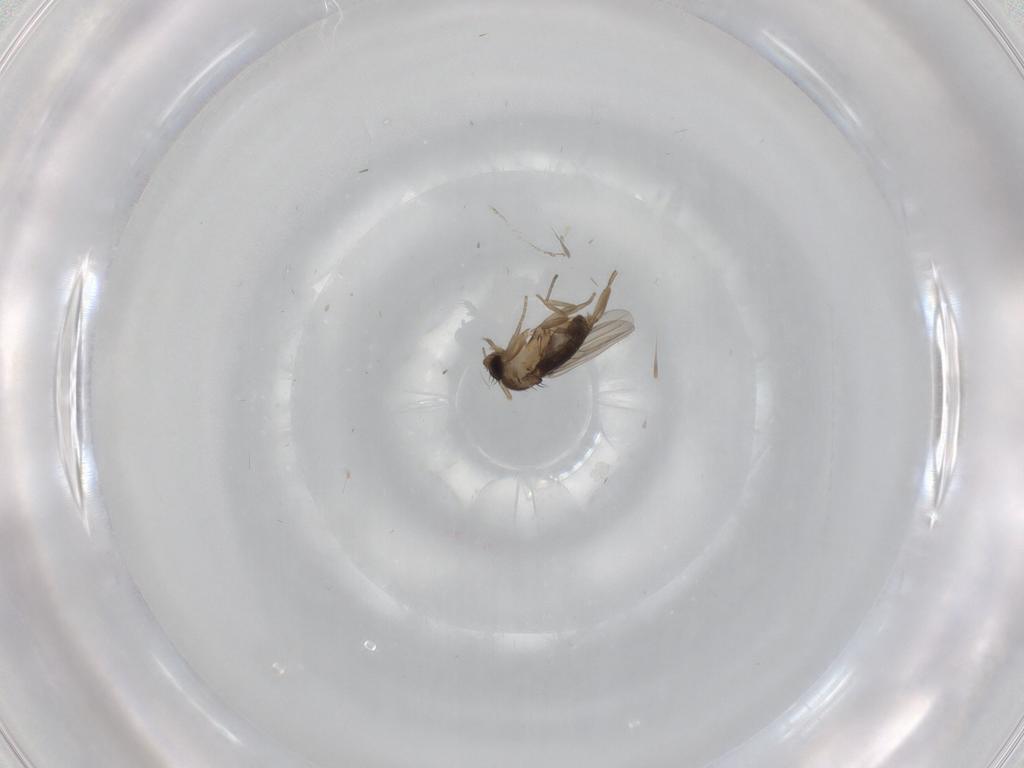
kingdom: Animalia
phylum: Arthropoda
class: Insecta
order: Diptera
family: Phoridae
